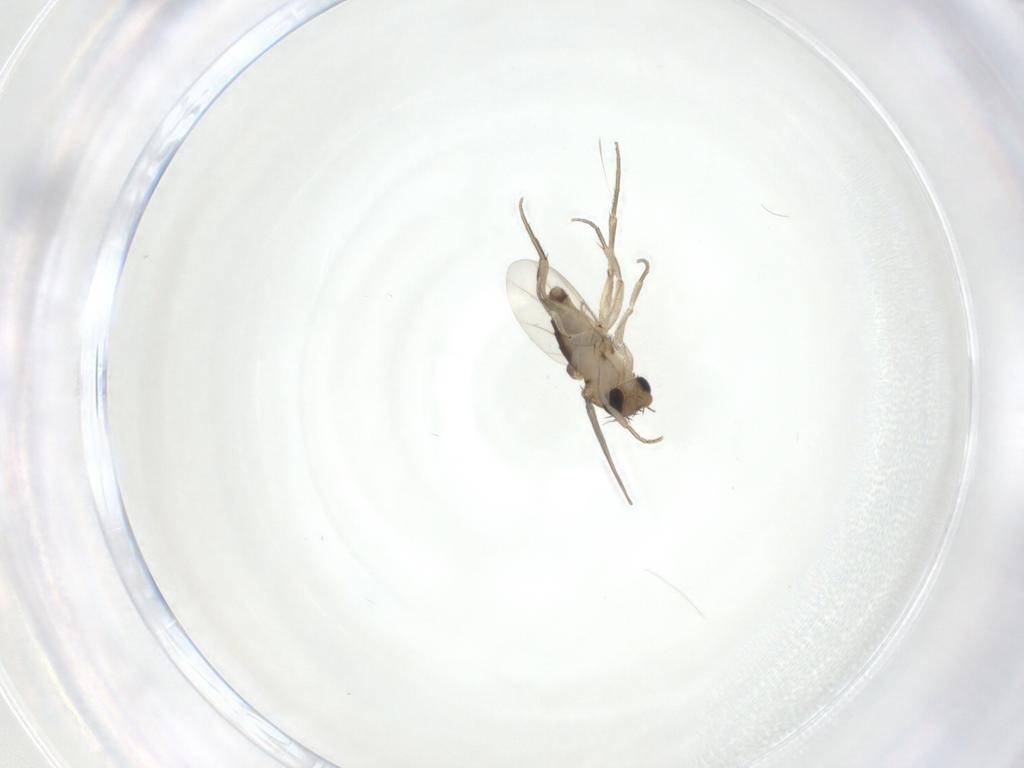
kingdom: Animalia
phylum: Arthropoda
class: Insecta
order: Diptera
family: Phoridae
